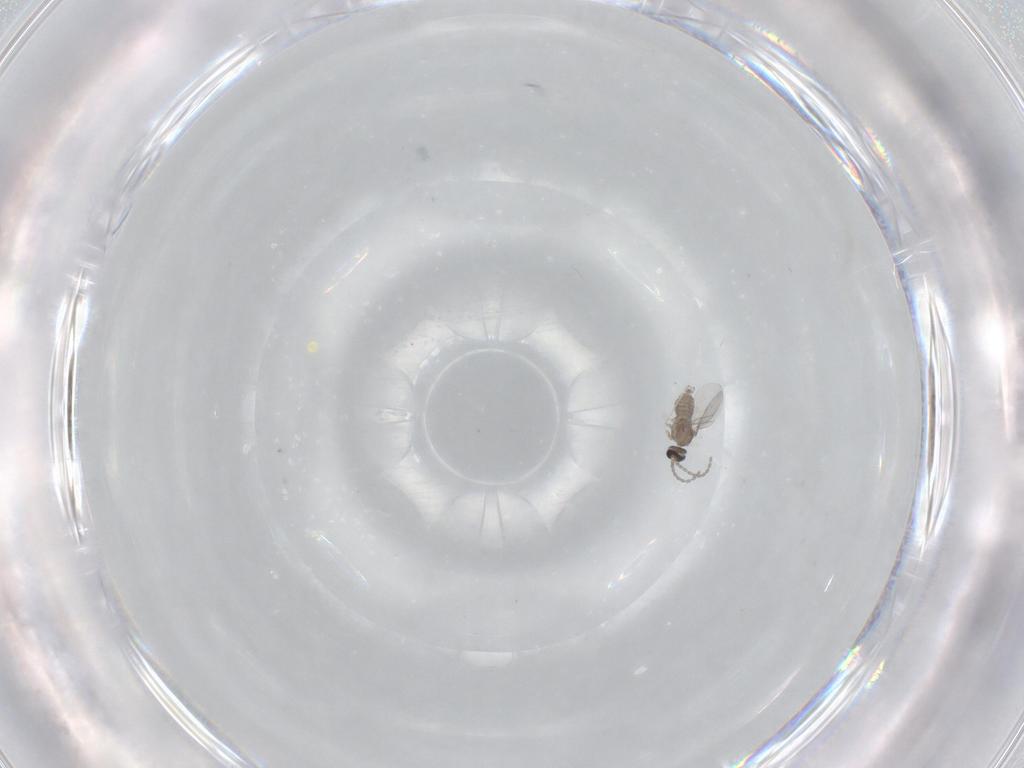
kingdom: Animalia
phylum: Arthropoda
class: Insecta
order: Diptera
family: Cecidomyiidae
